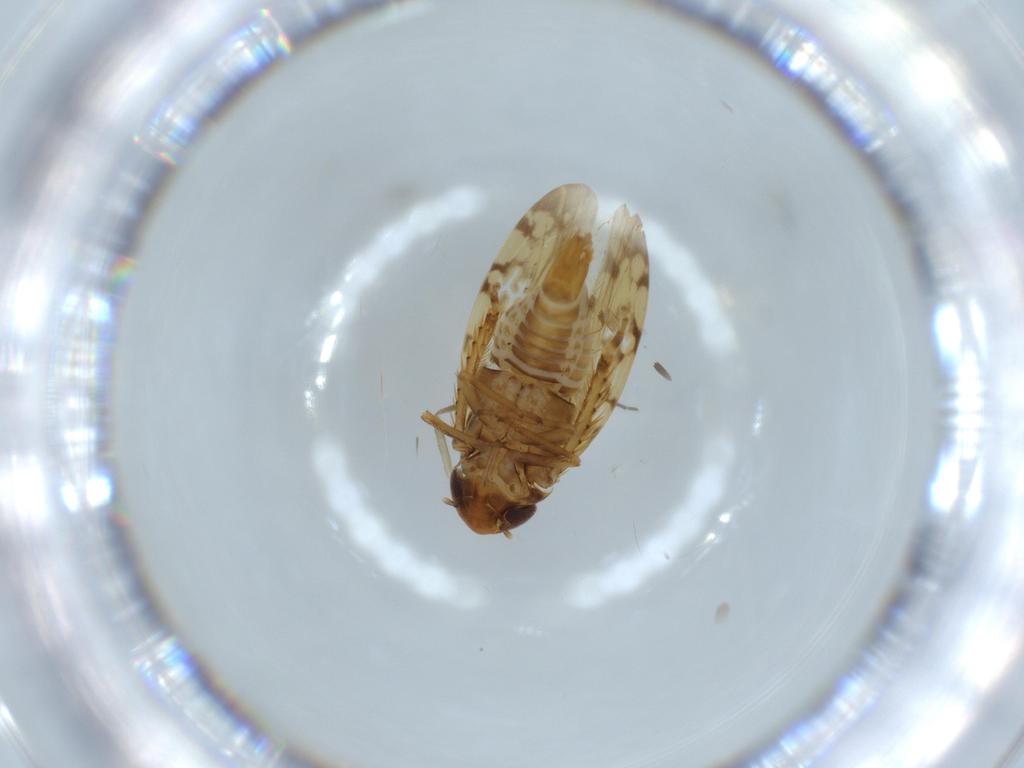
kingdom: Animalia
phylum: Arthropoda
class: Insecta
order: Hemiptera
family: Cicadellidae
